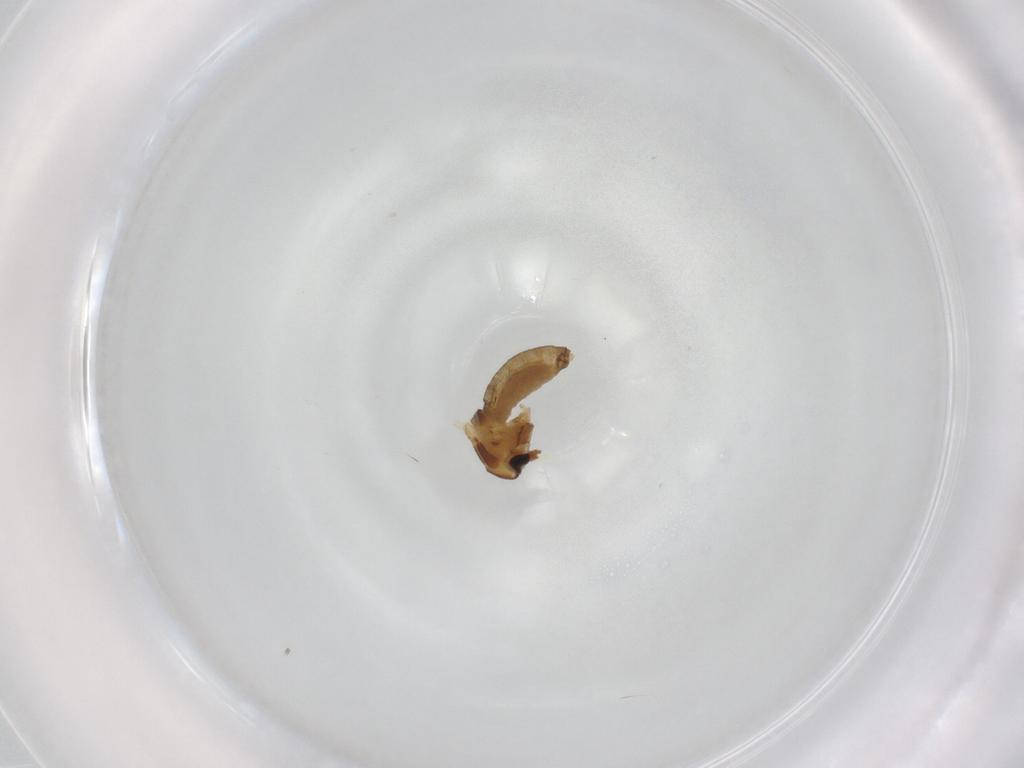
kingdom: Animalia
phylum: Arthropoda
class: Insecta
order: Diptera
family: Chironomidae
